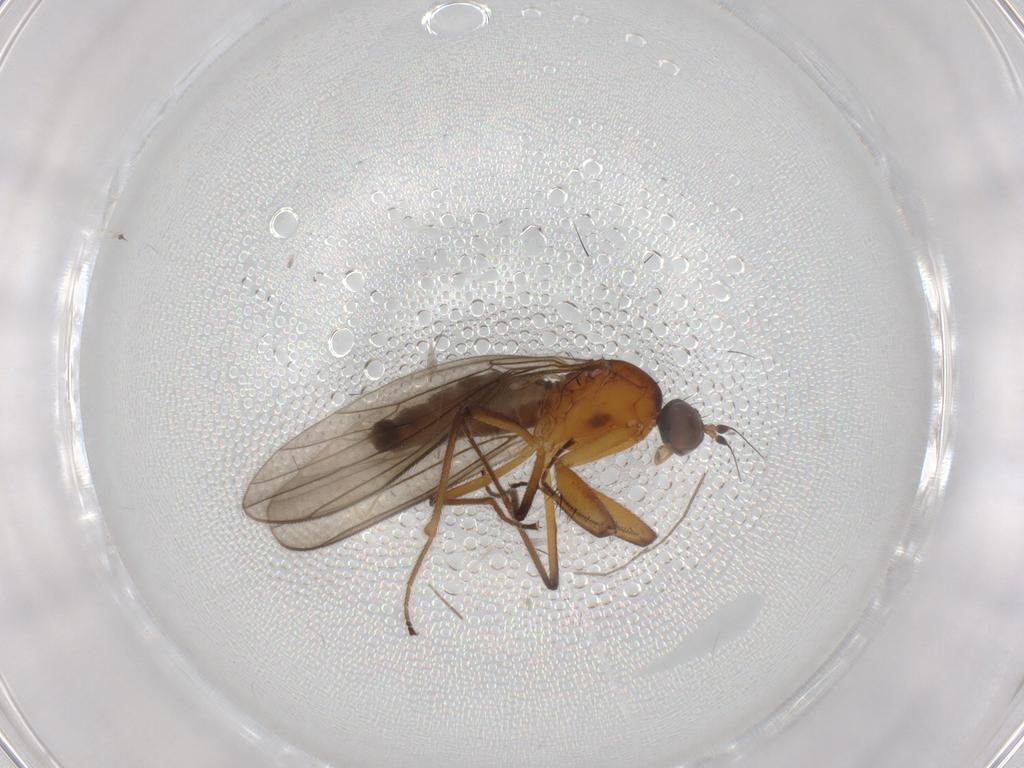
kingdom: Animalia
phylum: Arthropoda
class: Insecta
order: Diptera
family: Empididae
